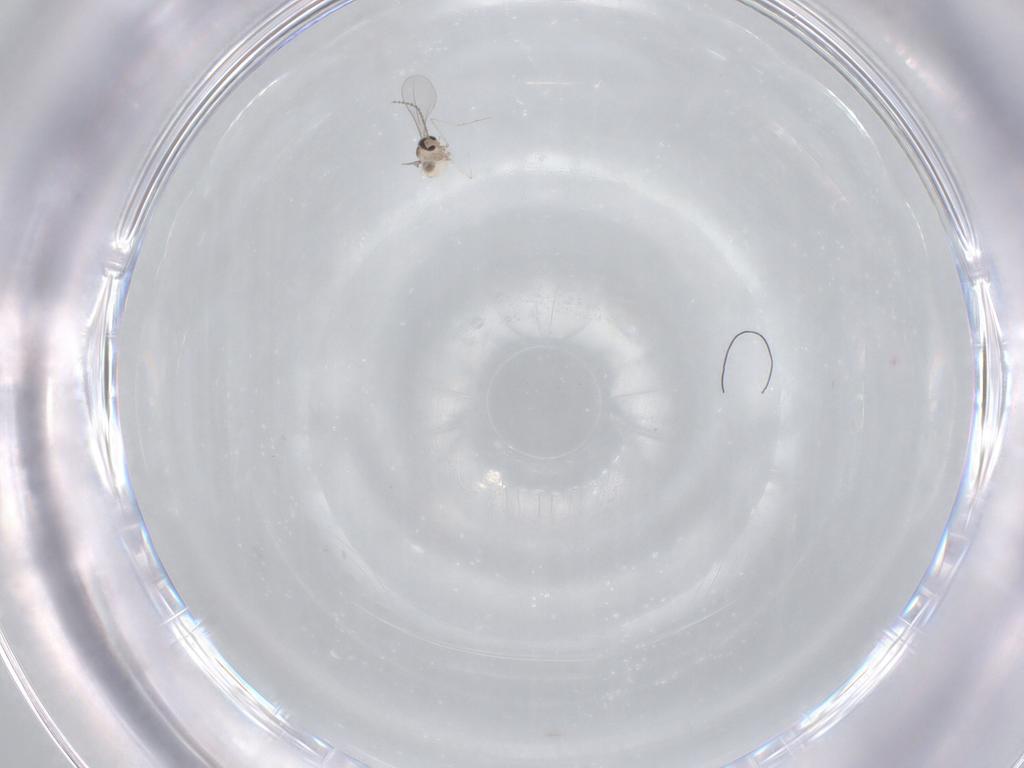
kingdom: Animalia
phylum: Arthropoda
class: Insecta
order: Diptera
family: Cecidomyiidae
